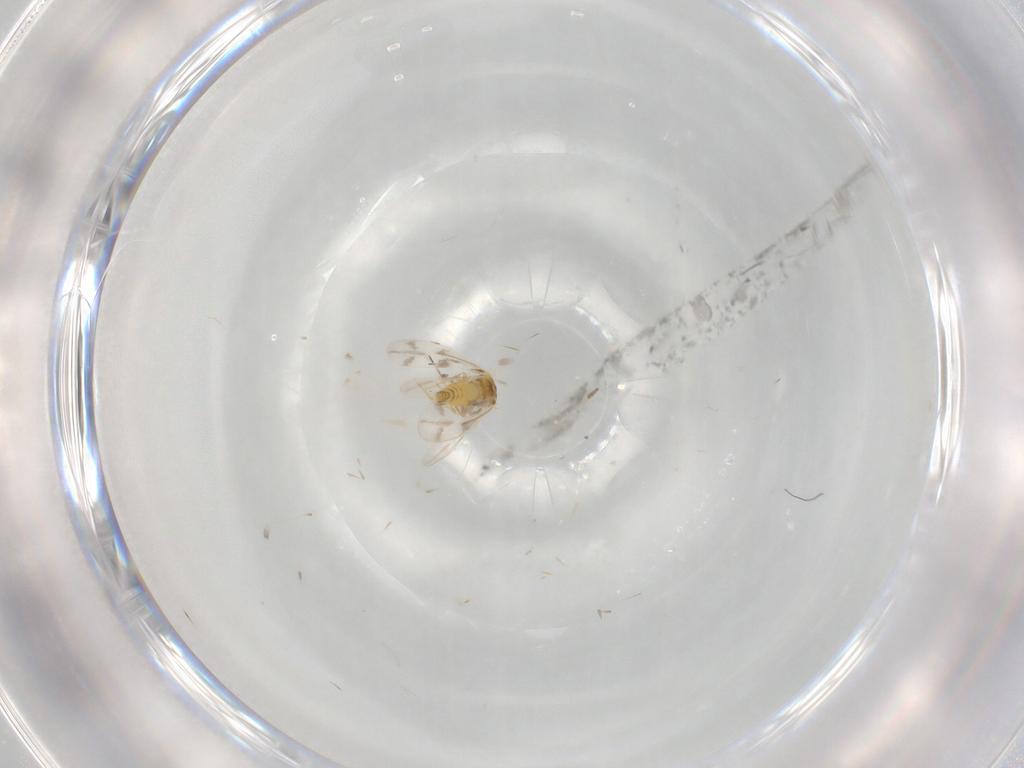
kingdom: Animalia
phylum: Arthropoda
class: Insecta
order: Hemiptera
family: Aleyrodidae
